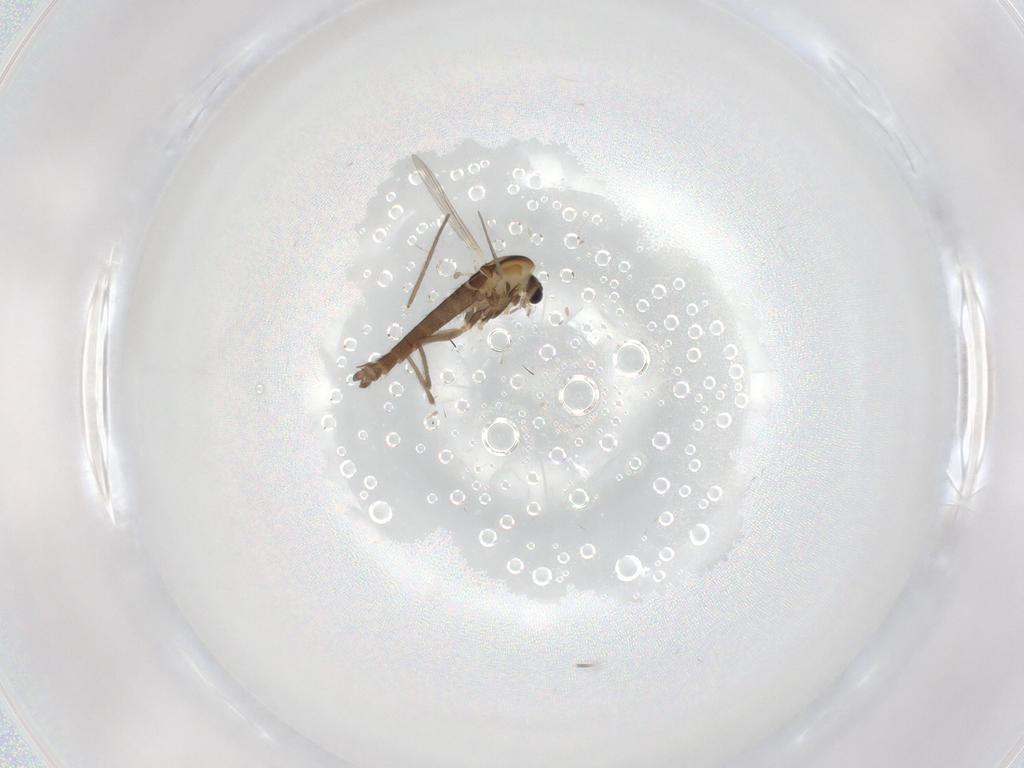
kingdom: Animalia
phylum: Arthropoda
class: Insecta
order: Diptera
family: Chironomidae
